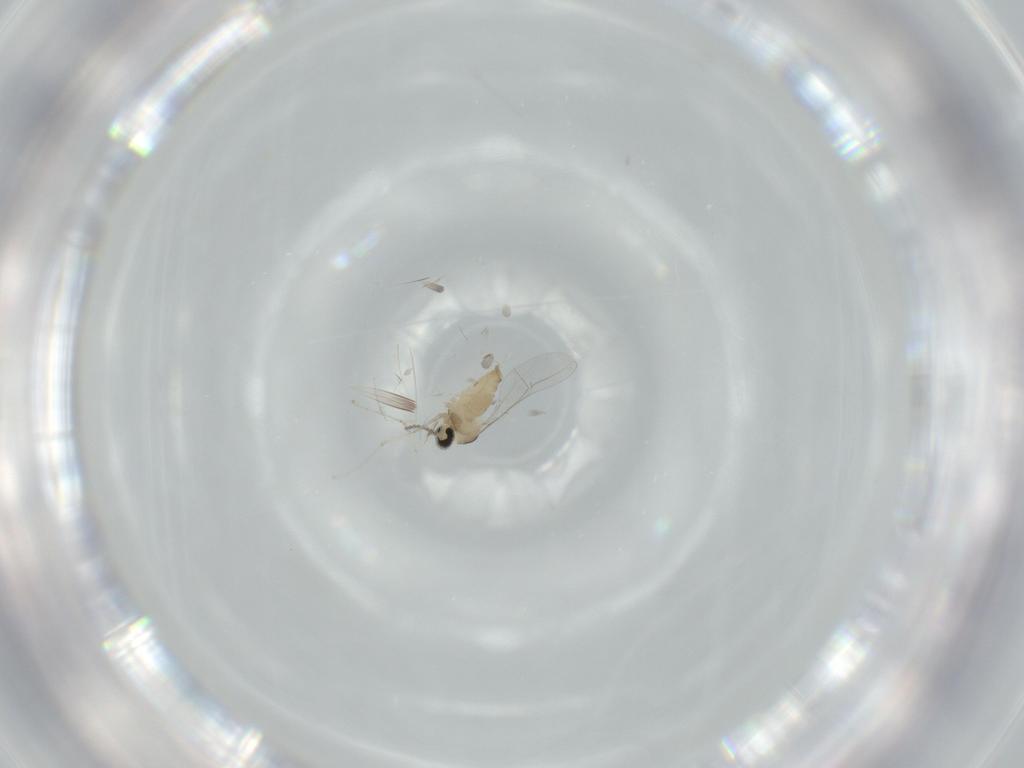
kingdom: Animalia
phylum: Arthropoda
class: Insecta
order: Diptera
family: Cecidomyiidae
